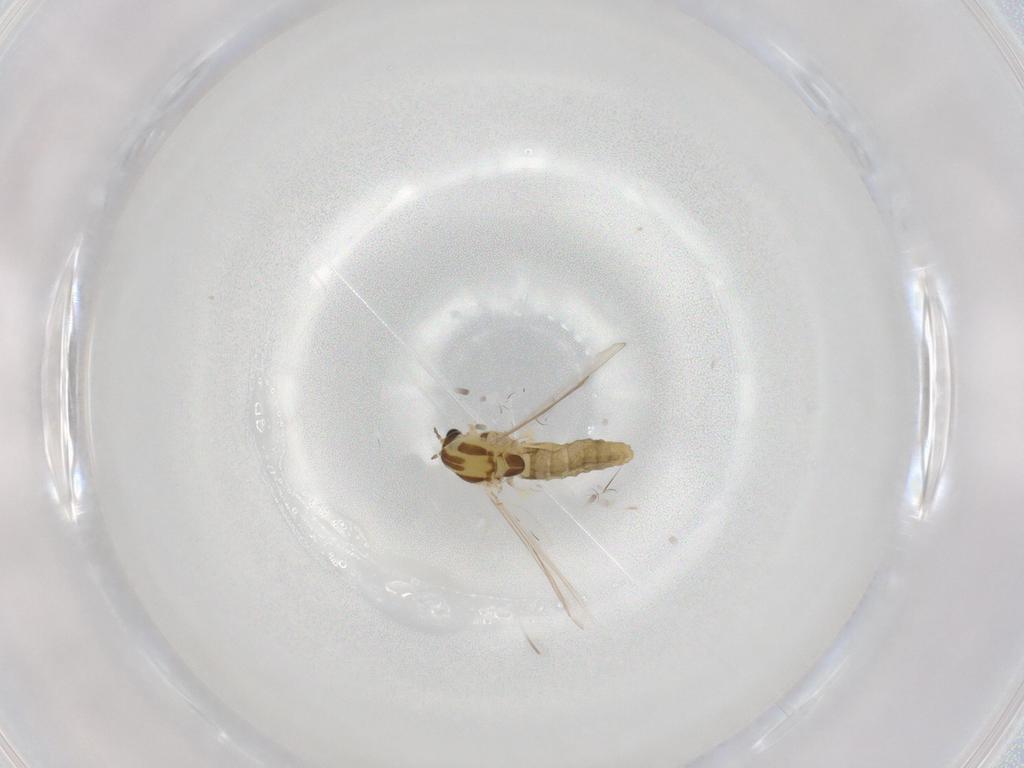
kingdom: Animalia
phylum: Arthropoda
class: Insecta
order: Diptera
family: Chironomidae
